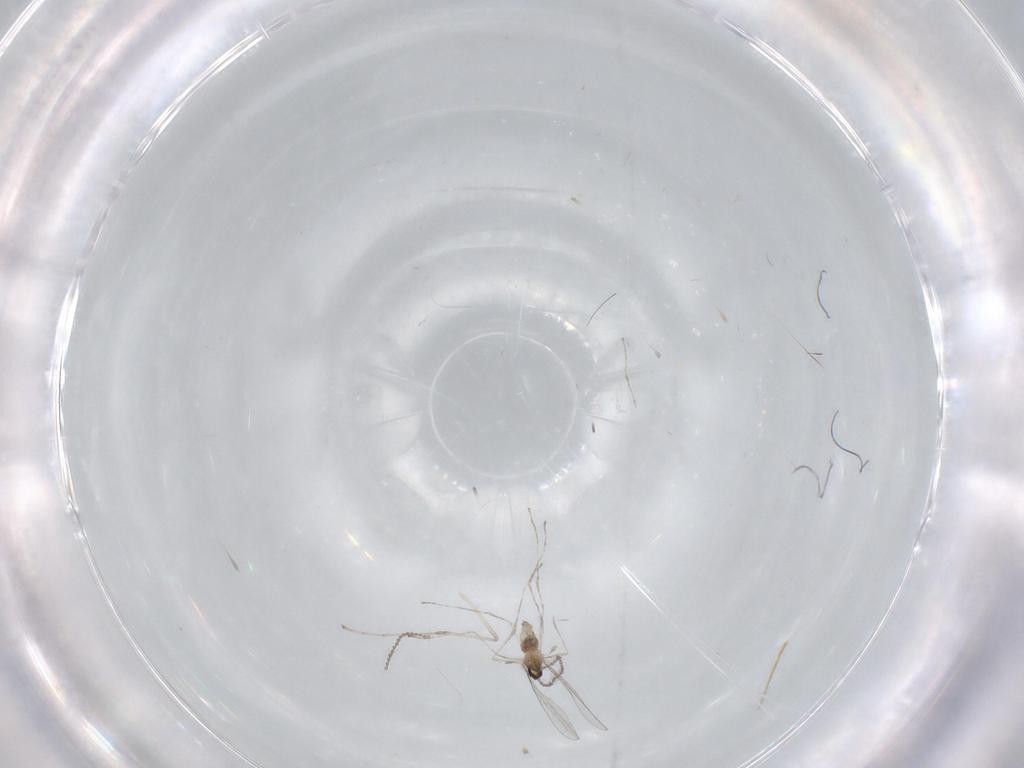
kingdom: Animalia
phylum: Arthropoda
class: Insecta
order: Diptera
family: Cecidomyiidae
